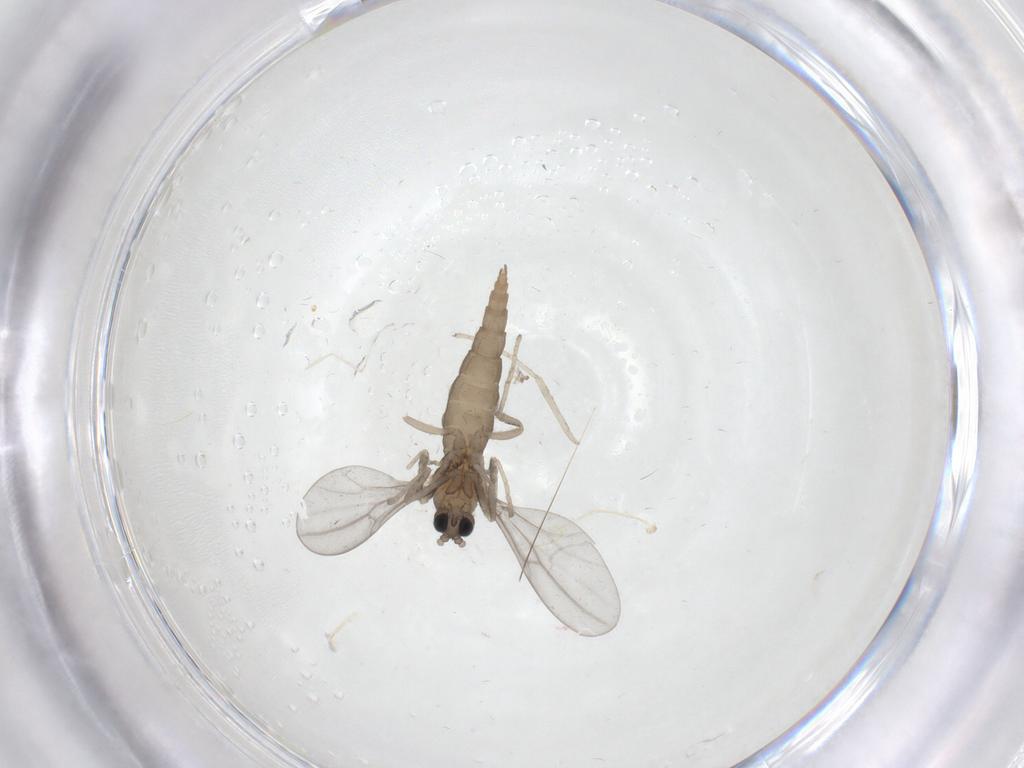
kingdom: Animalia
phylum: Arthropoda
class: Insecta
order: Diptera
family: Cecidomyiidae
